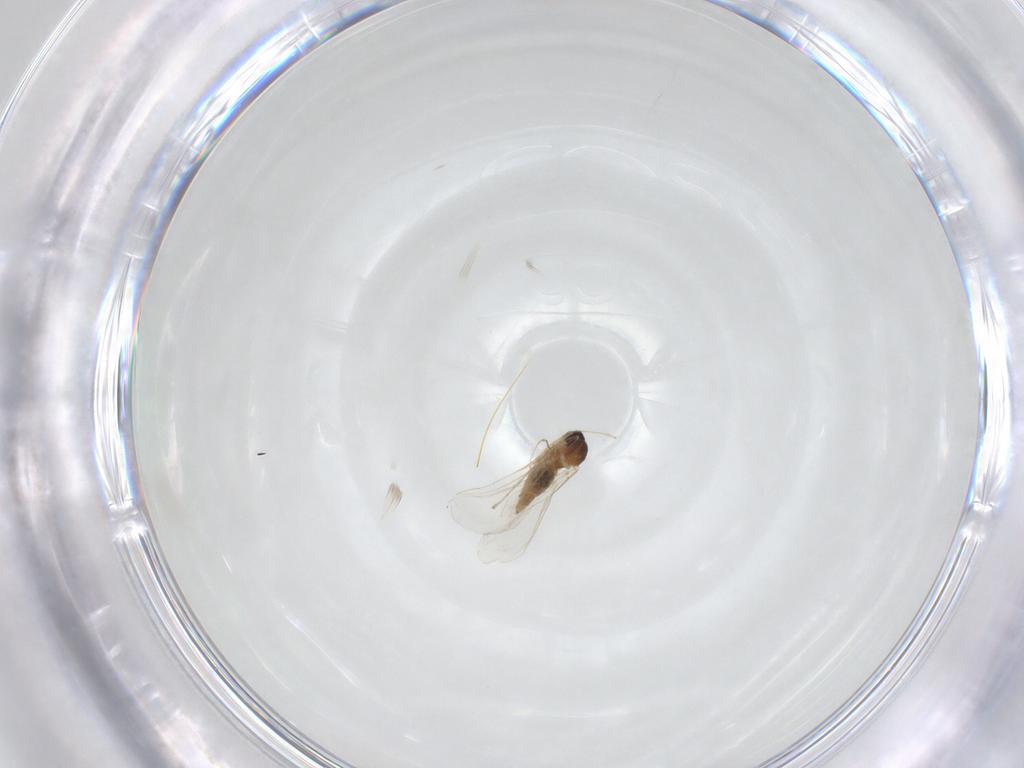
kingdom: Animalia
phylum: Arthropoda
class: Insecta
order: Diptera
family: Cecidomyiidae
